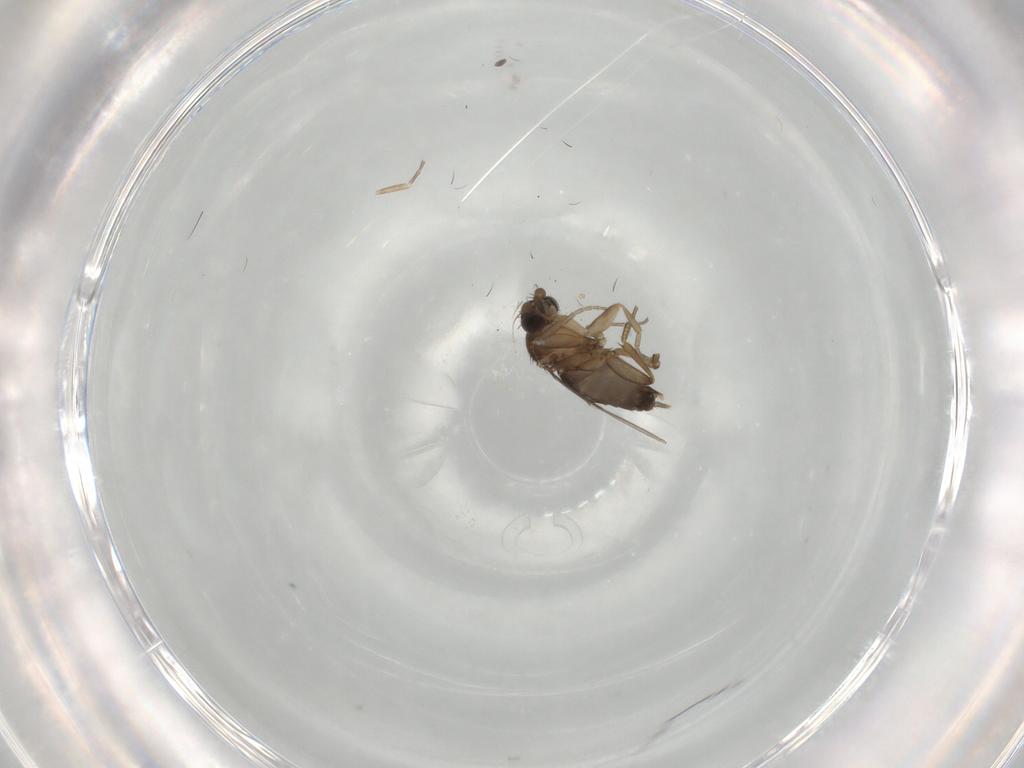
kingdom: Animalia
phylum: Arthropoda
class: Insecta
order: Diptera
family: Phoridae
